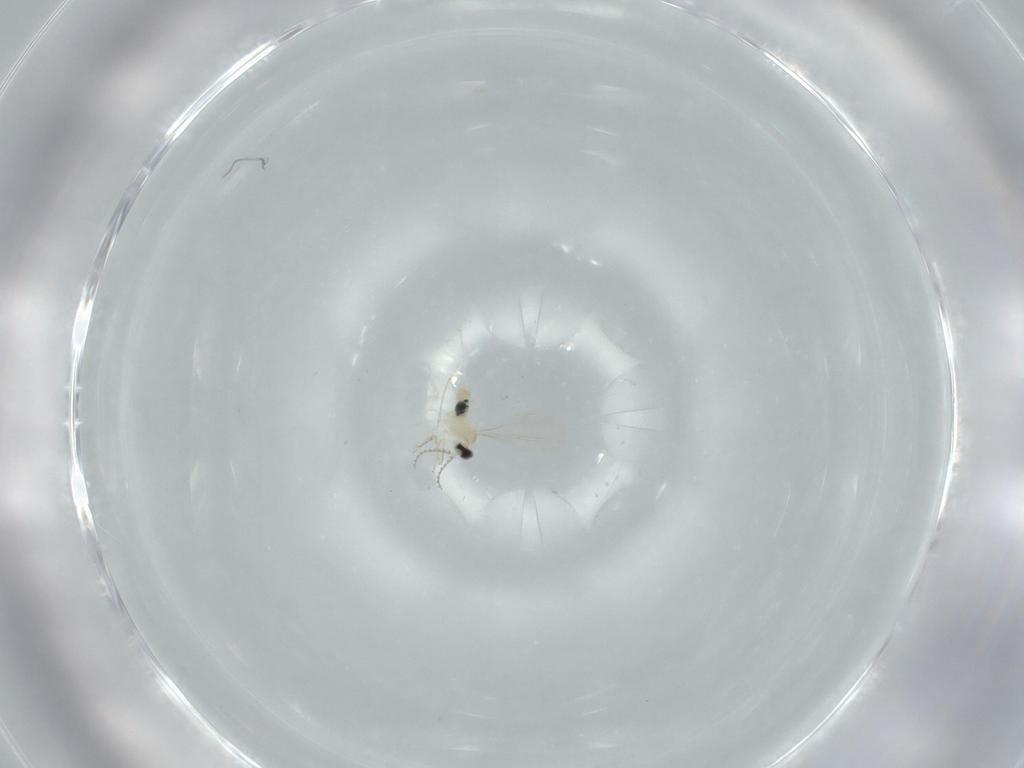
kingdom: Animalia
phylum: Arthropoda
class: Insecta
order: Diptera
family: Cecidomyiidae
